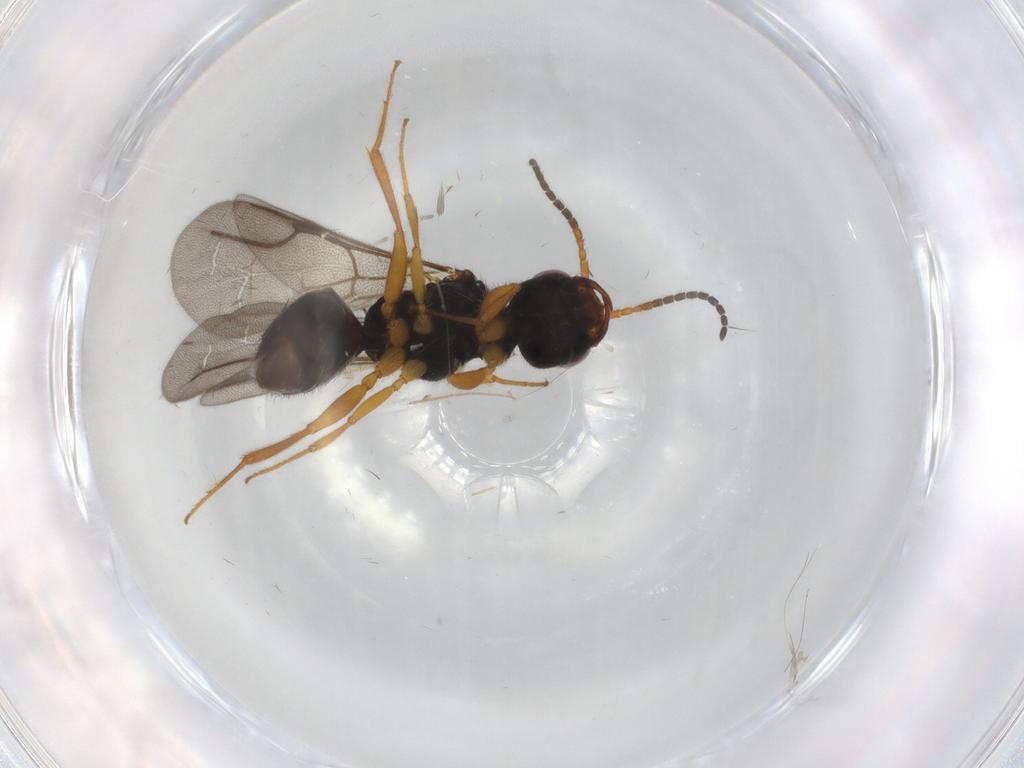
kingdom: Animalia
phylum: Arthropoda
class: Insecta
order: Hymenoptera
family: Bethylidae
